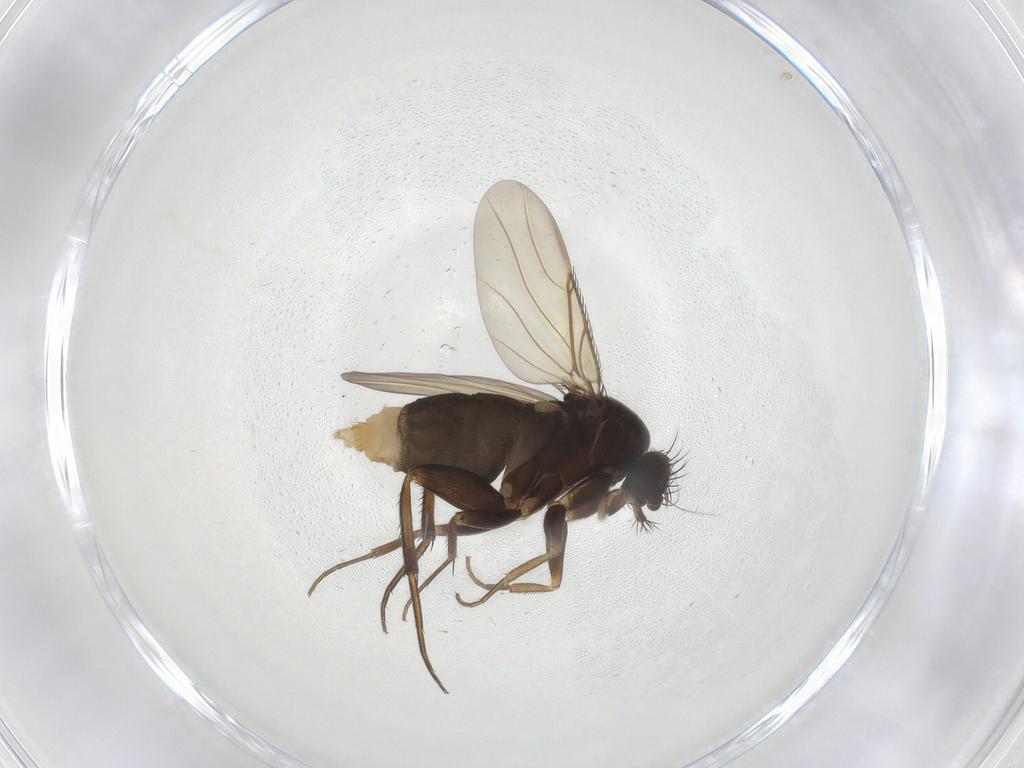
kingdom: Animalia
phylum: Arthropoda
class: Insecta
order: Diptera
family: Phoridae
